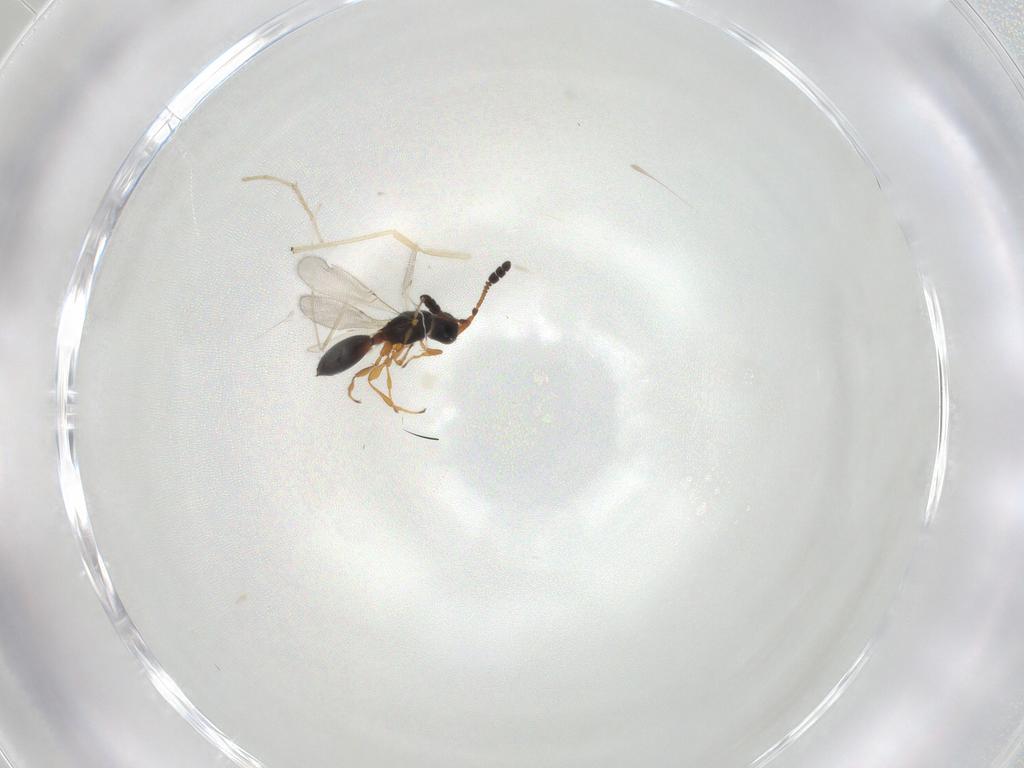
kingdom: Animalia
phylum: Arthropoda
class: Insecta
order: Hymenoptera
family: Diapriidae
